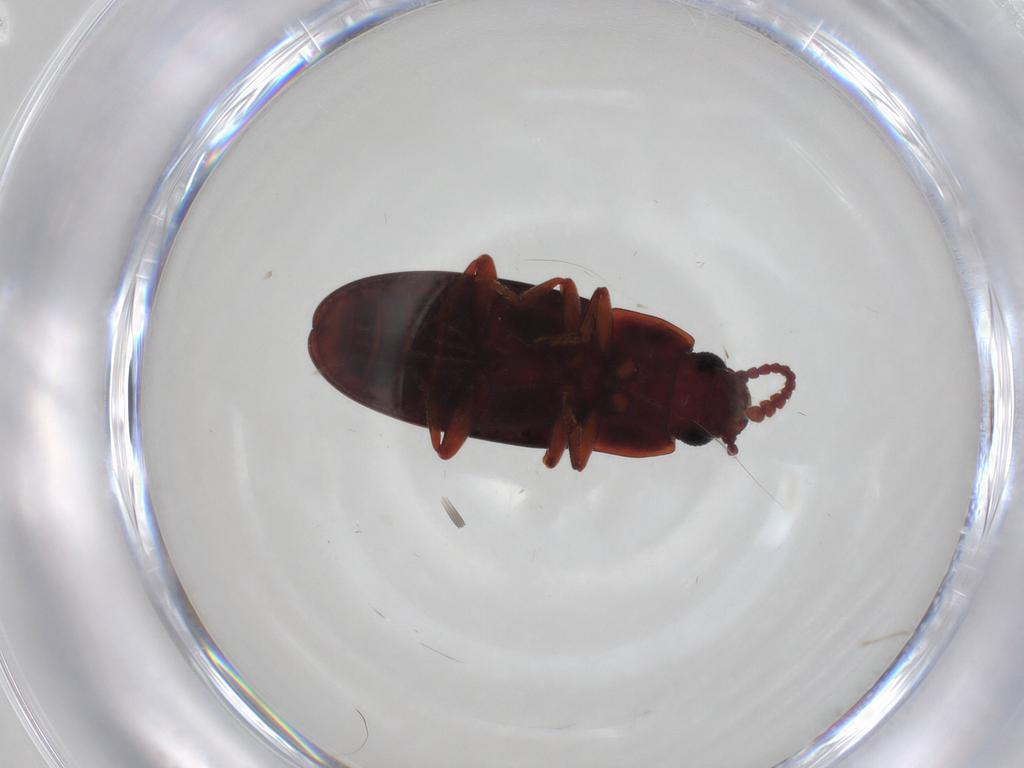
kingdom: Animalia
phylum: Arthropoda
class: Insecta
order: Coleoptera
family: Erotylidae
